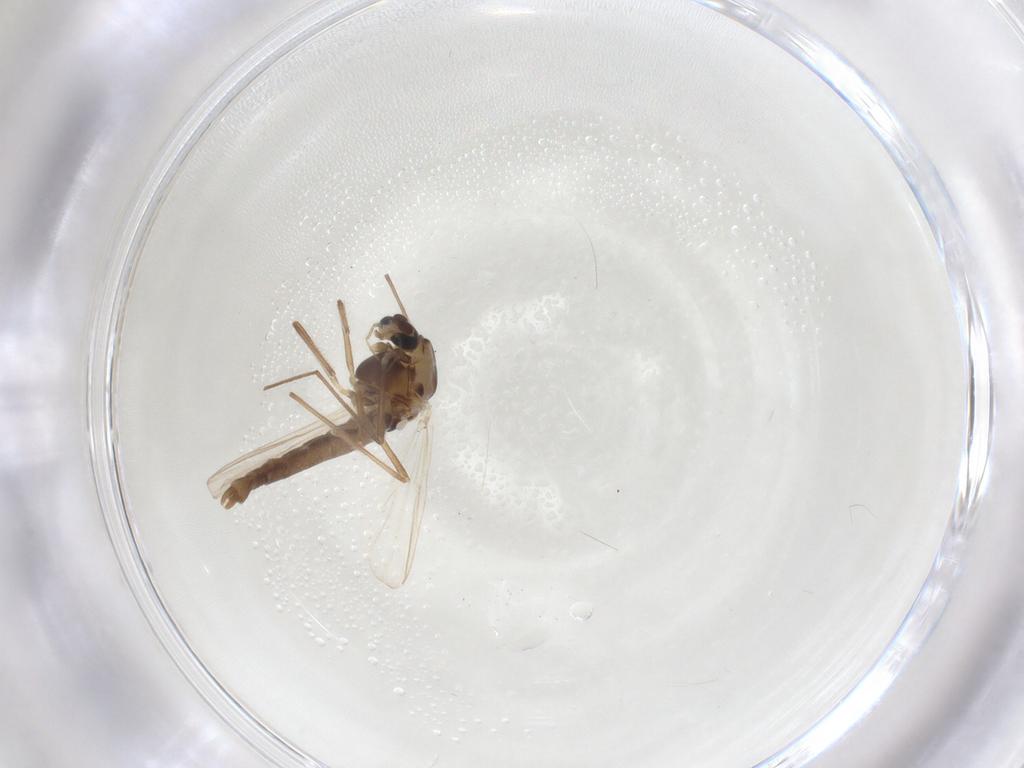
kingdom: Animalia
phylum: Arthropoda
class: Insecta
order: Diptera
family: Chironomidae
